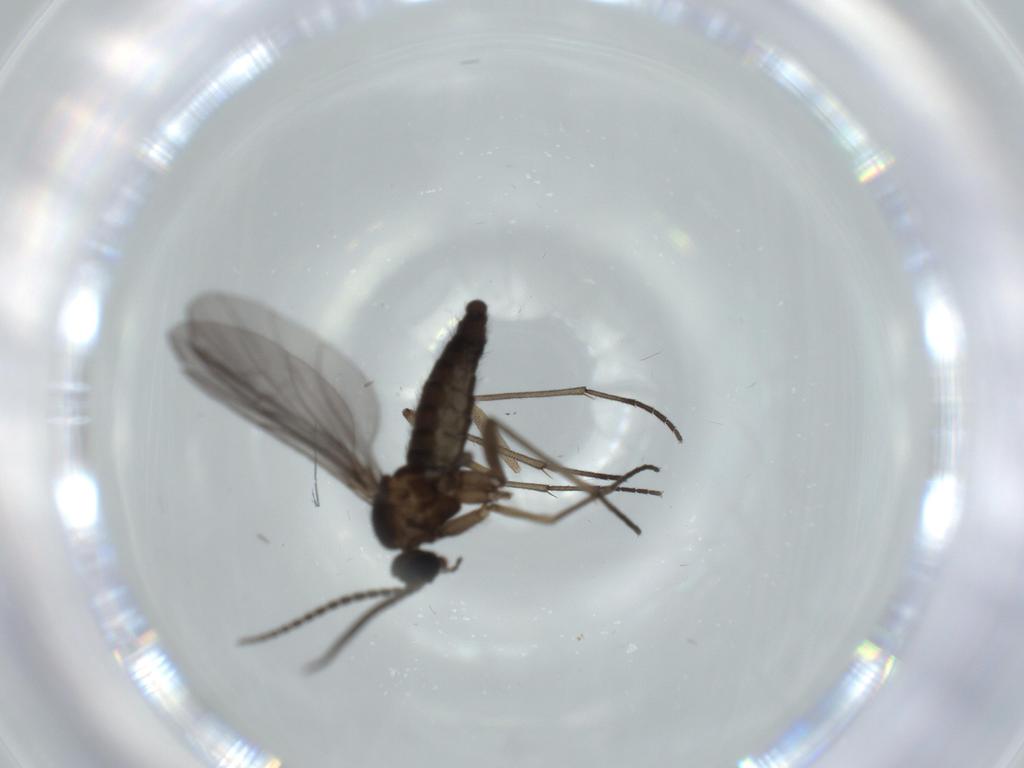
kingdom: Animalia
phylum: Arthropoda
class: Insecta
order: Diptera
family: Sciaridae
